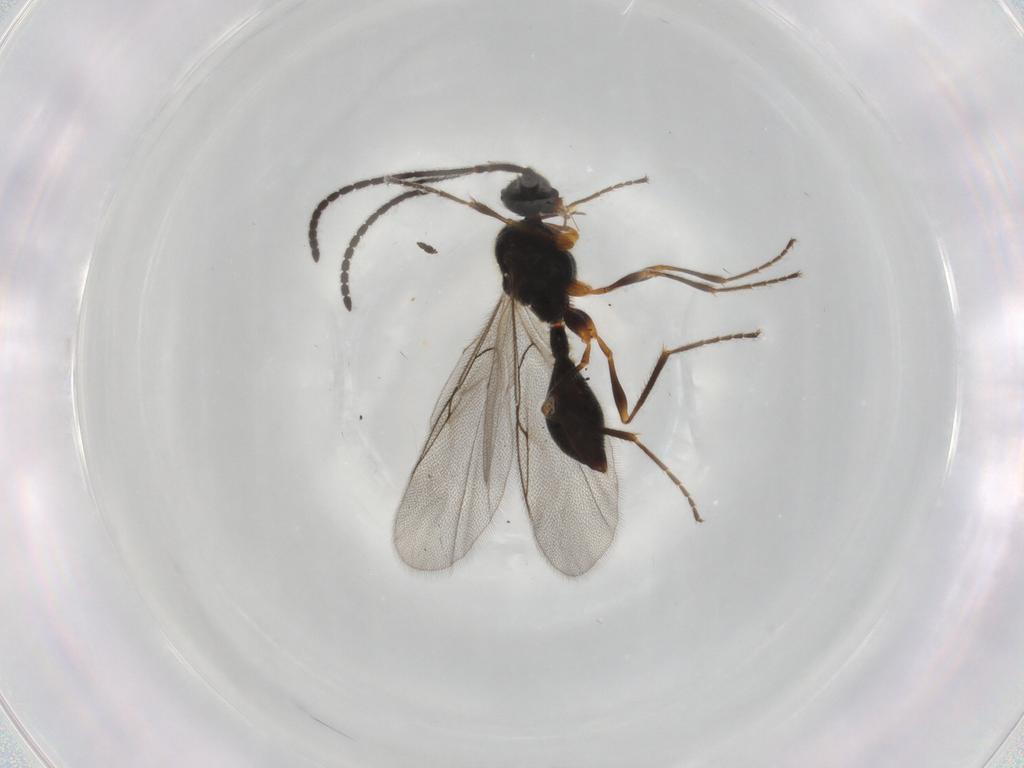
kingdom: Animalia
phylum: Arthropoda
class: Insecta
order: Hymenoptera
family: Diapriidae
